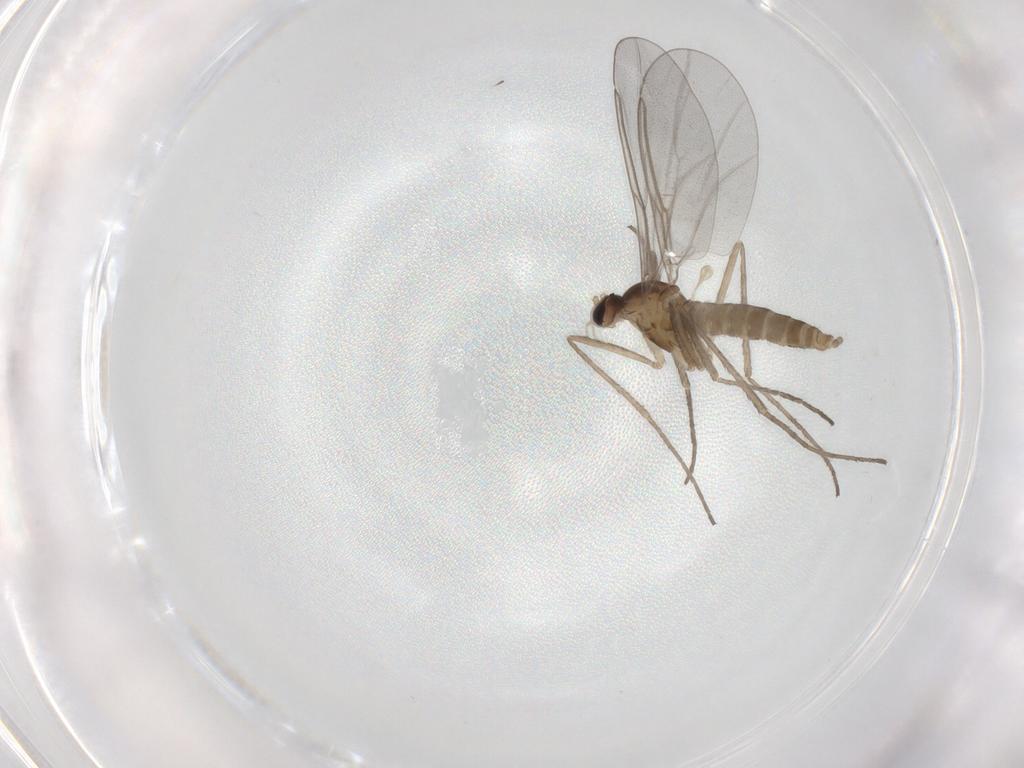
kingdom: Animalia
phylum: Arthropoda
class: Insecta
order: Diptera
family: Cecidomyiidae
